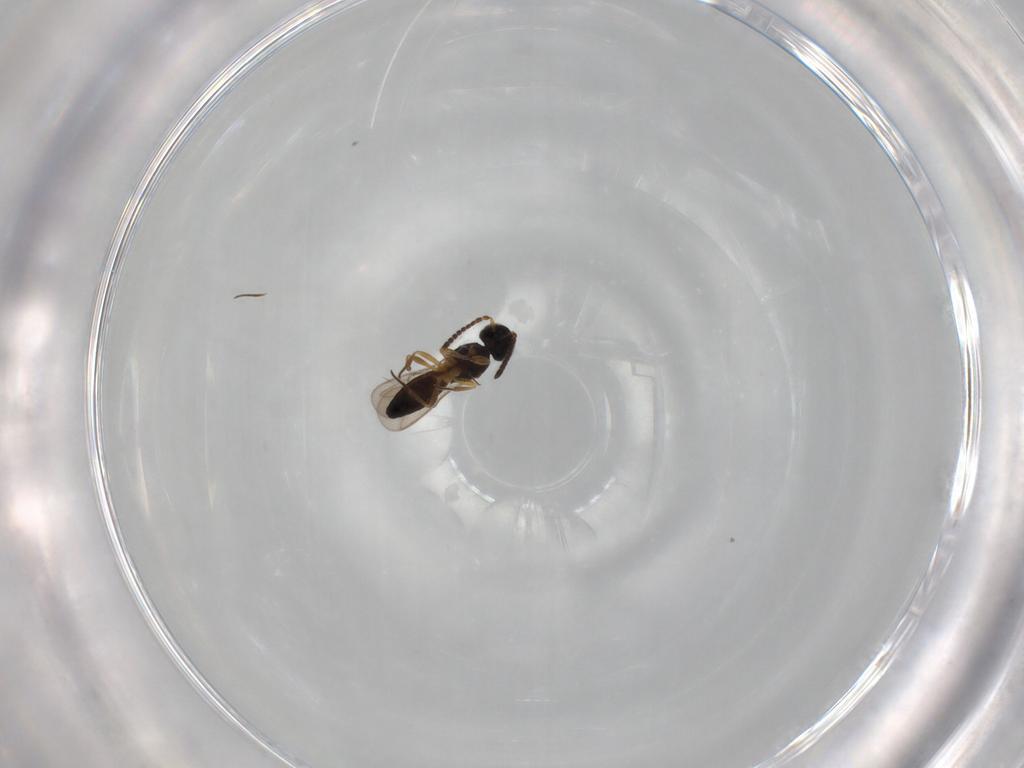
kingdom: Animalia
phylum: Arthropoda
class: Insecta
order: Hymenoptera
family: Scelionidae
